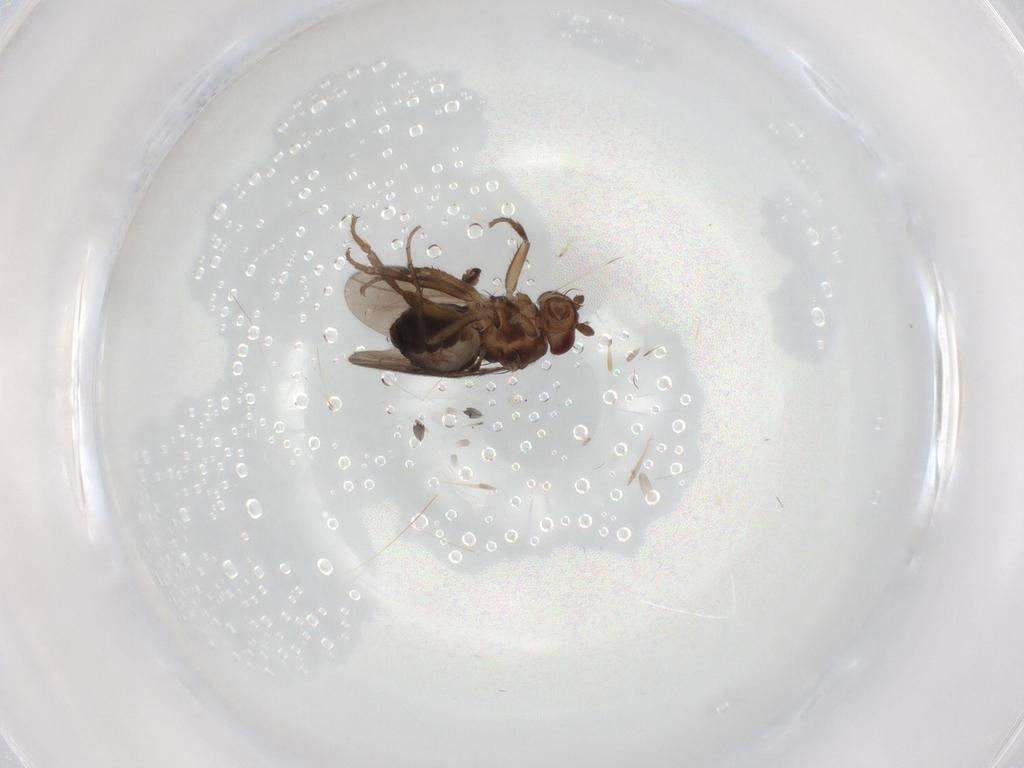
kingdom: Animalia
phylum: Arthropoda
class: Insecta
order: Diptera
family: Sphaeroceridae
